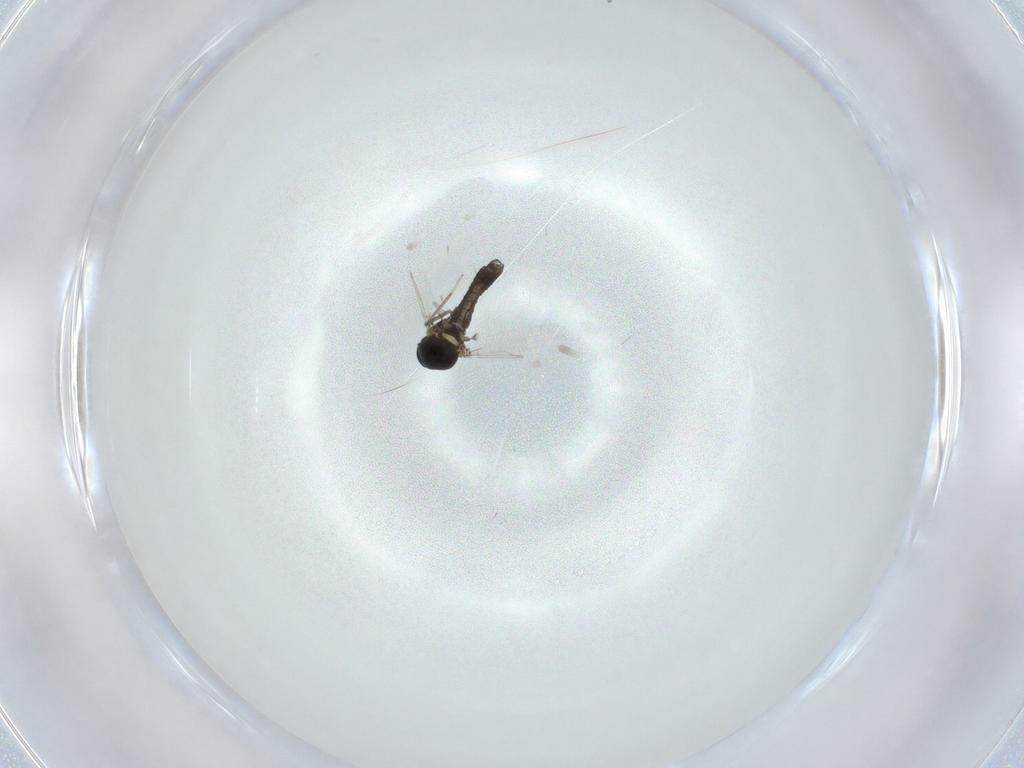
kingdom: Animalia
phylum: Arthropoda
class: Insecta
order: Diptera
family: Ceratopogonidae
